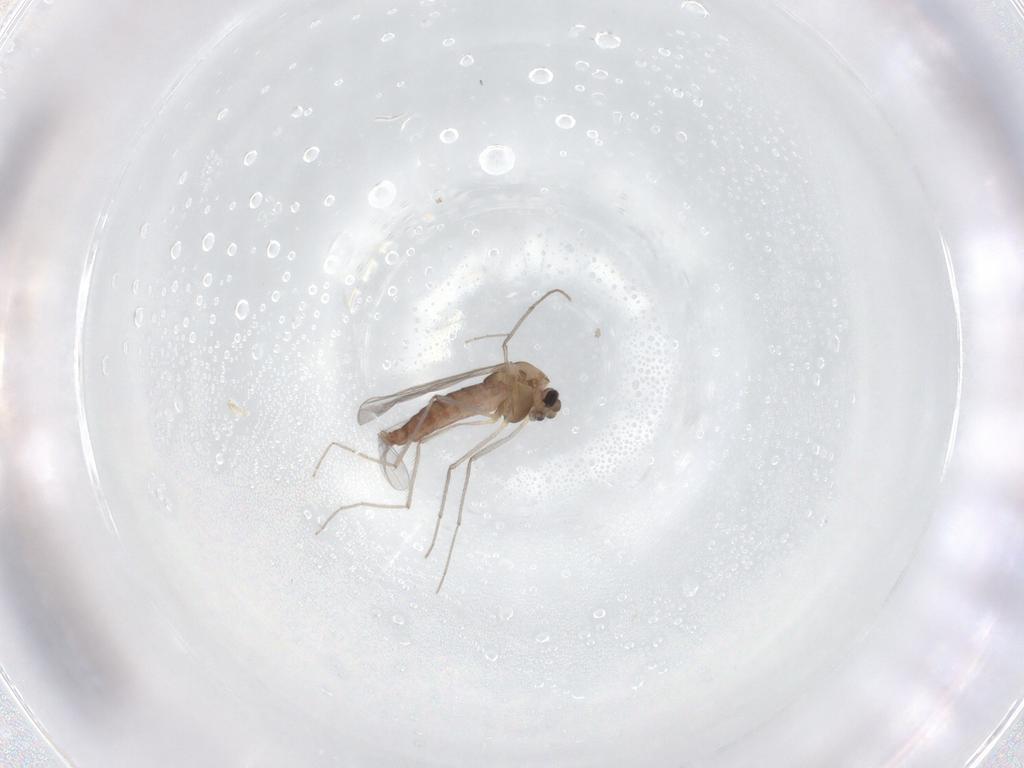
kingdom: Animalia
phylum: Arthropoda
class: Insecta
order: Diptera
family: Chironomidae
